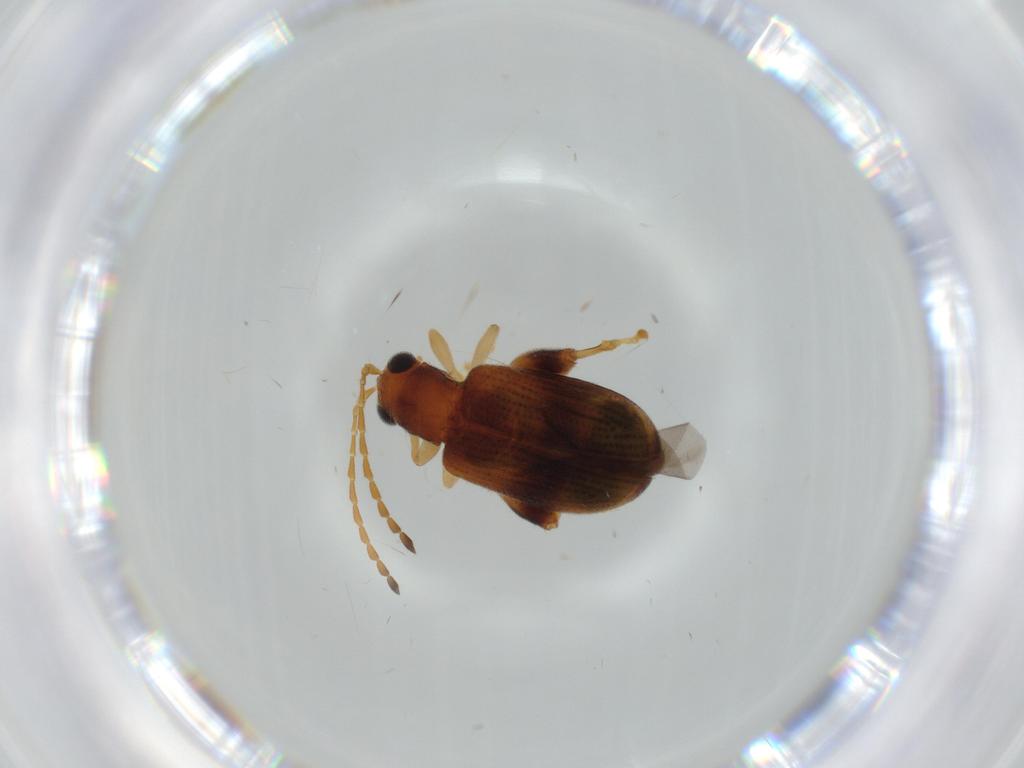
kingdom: Animalia
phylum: Arthropoda
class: Insecta
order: Coleoptera
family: Chrysomelidae
